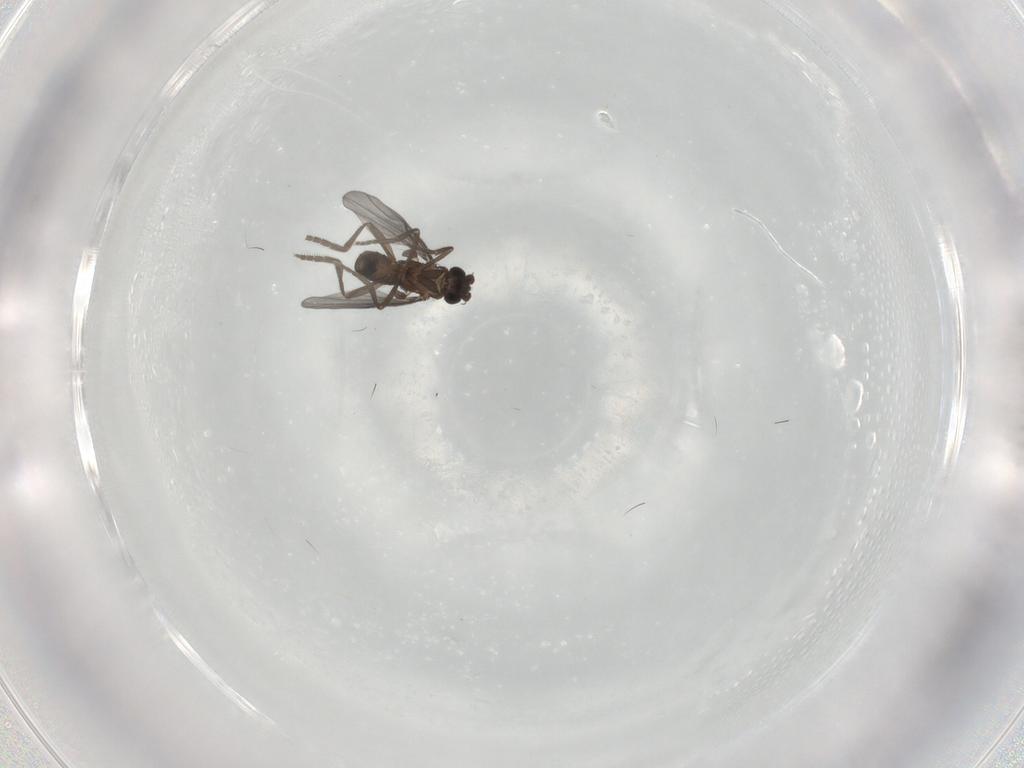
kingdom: Animalia
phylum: Arthropoda
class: Insecta
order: Diptera
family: Phoridae
